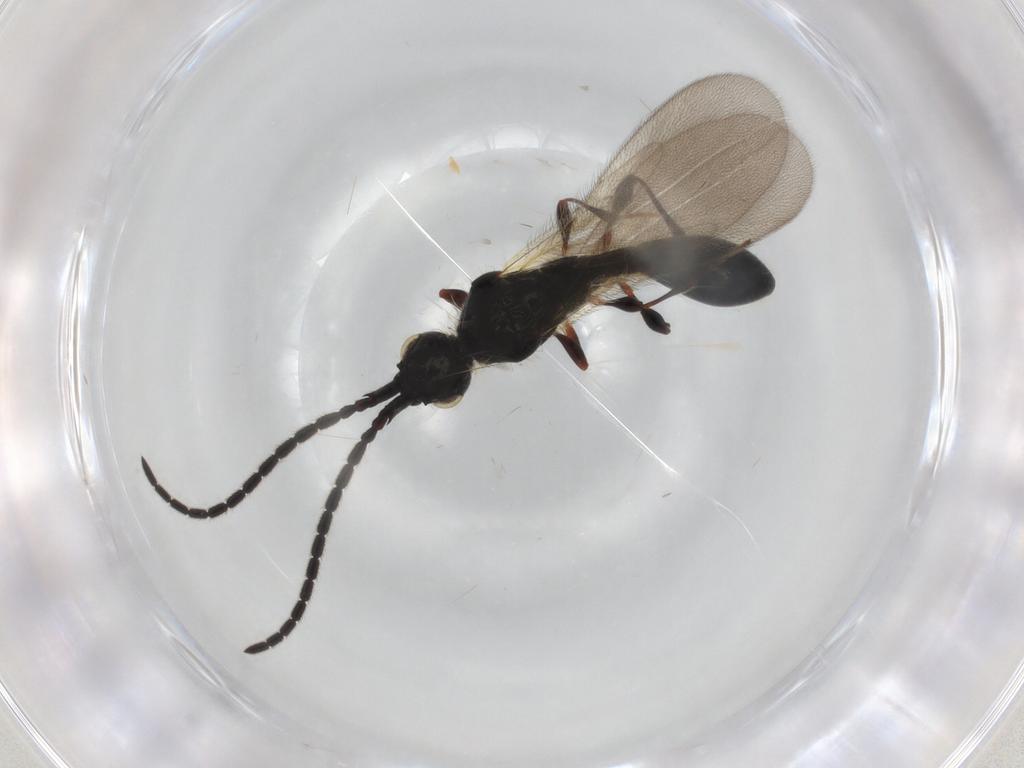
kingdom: Animalia
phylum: Arthropoda
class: Insecta
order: Hymenoptera
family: Diapriidae
